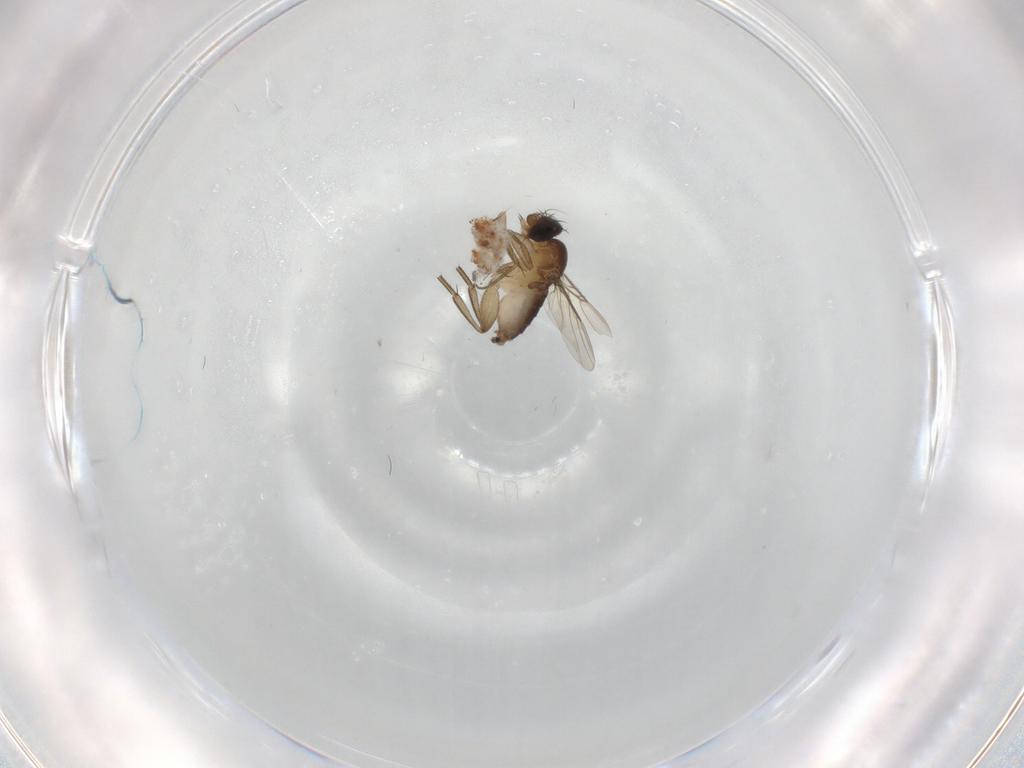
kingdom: Animalia
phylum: Arthropoda
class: Insecta
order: Diptera
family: Phoridae
